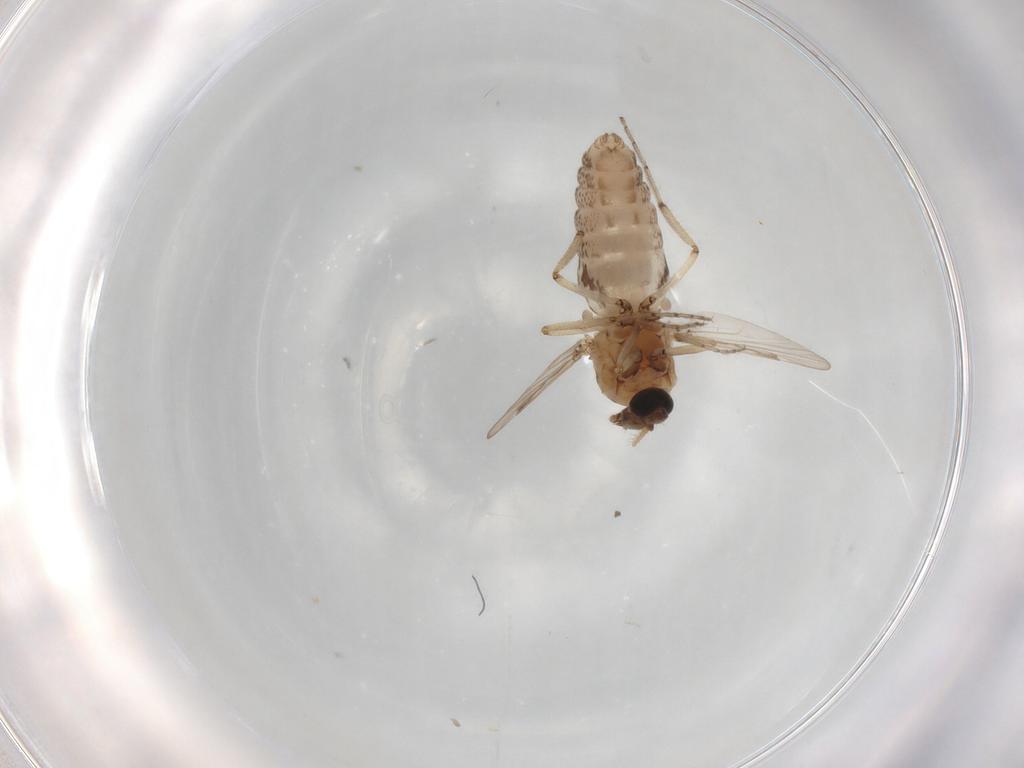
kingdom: Animalia
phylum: Arthropoda
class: Insecta
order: Diptera
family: Ceratopogonidae
